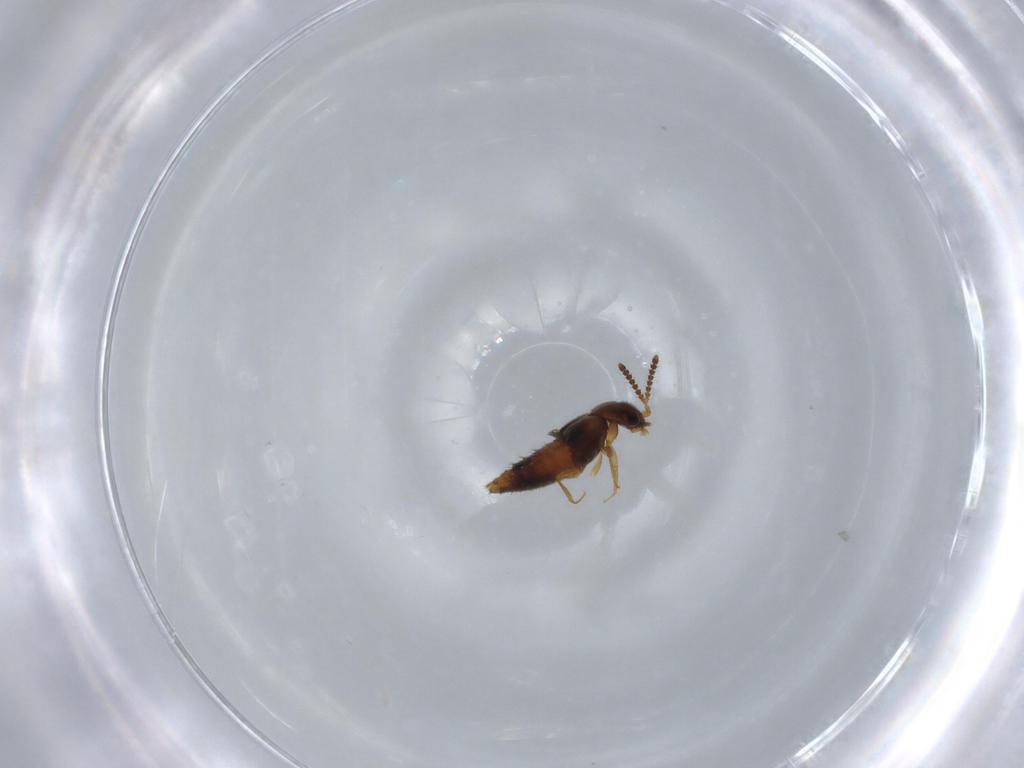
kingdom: Animalia
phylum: Arthropoda
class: Insecta
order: Coleoptera
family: Staphylinidae
